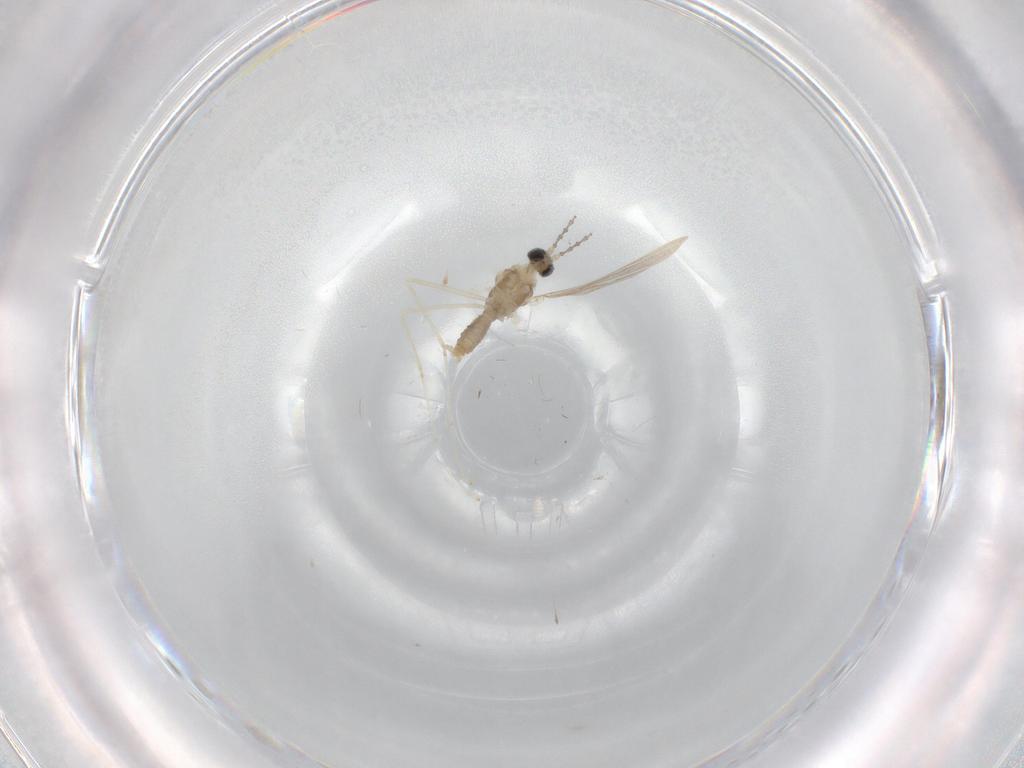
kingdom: Animalia
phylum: Arthropoda
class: Insecta
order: Diptera
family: Cecidomyiidae
